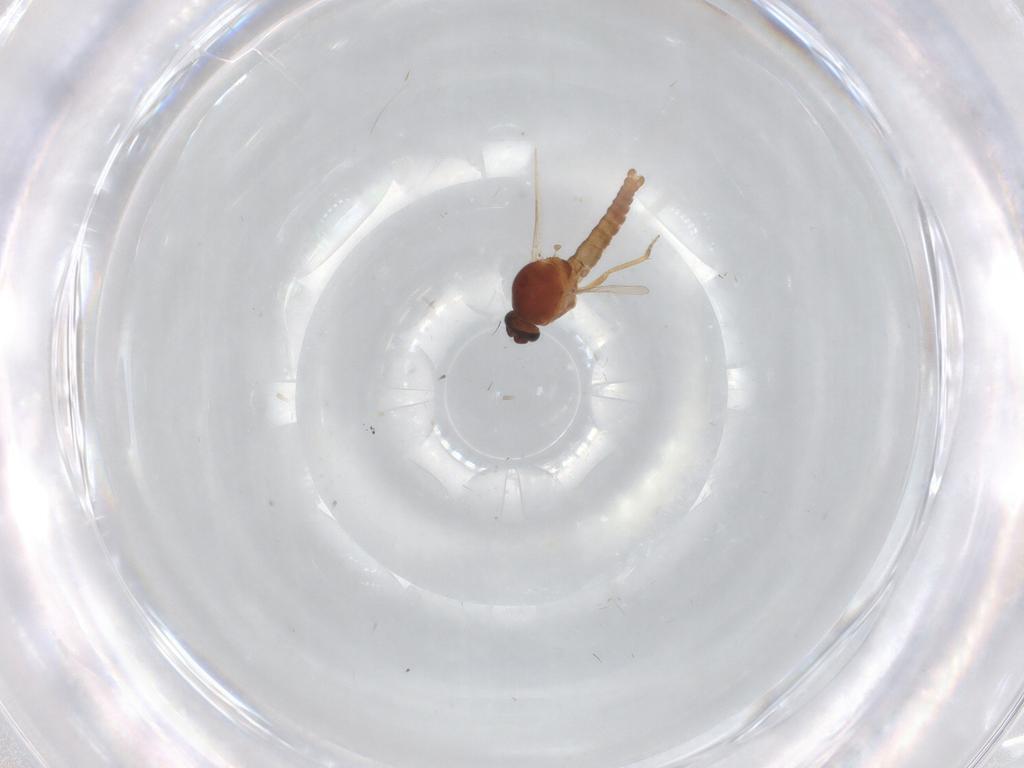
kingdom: Animalia
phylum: Arthropoda
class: Insecta
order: Diptera
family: Ceratopogonidae
